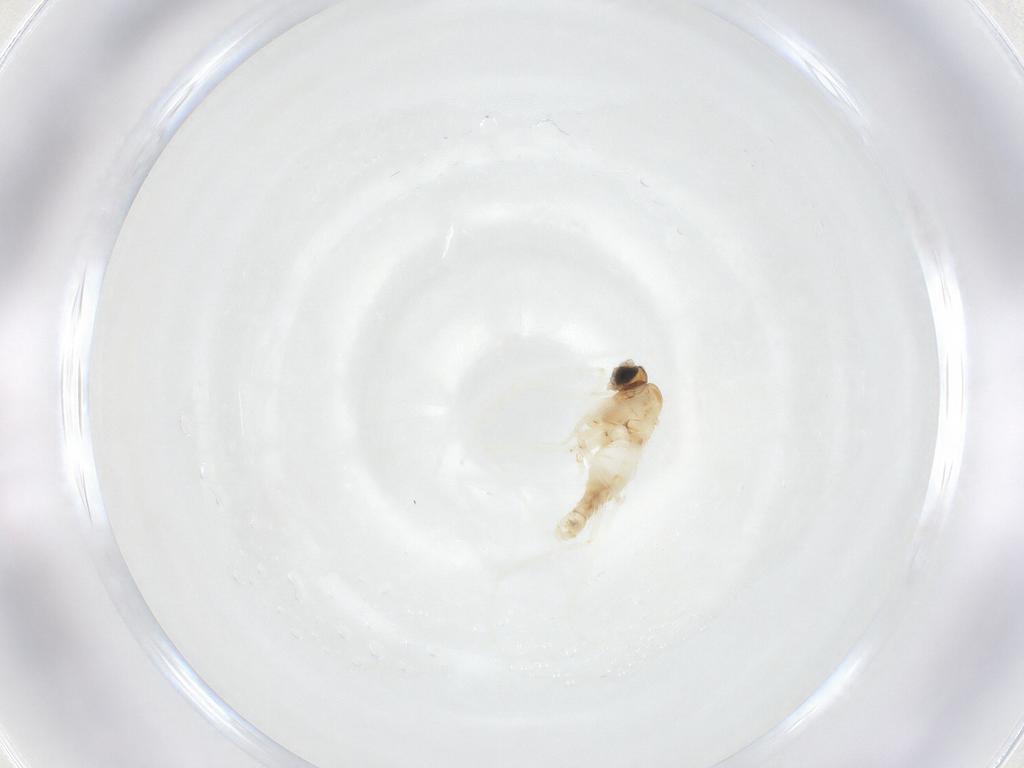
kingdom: Animalia
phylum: Arthropoda
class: Insecta
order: Diptera
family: Sciaridae
